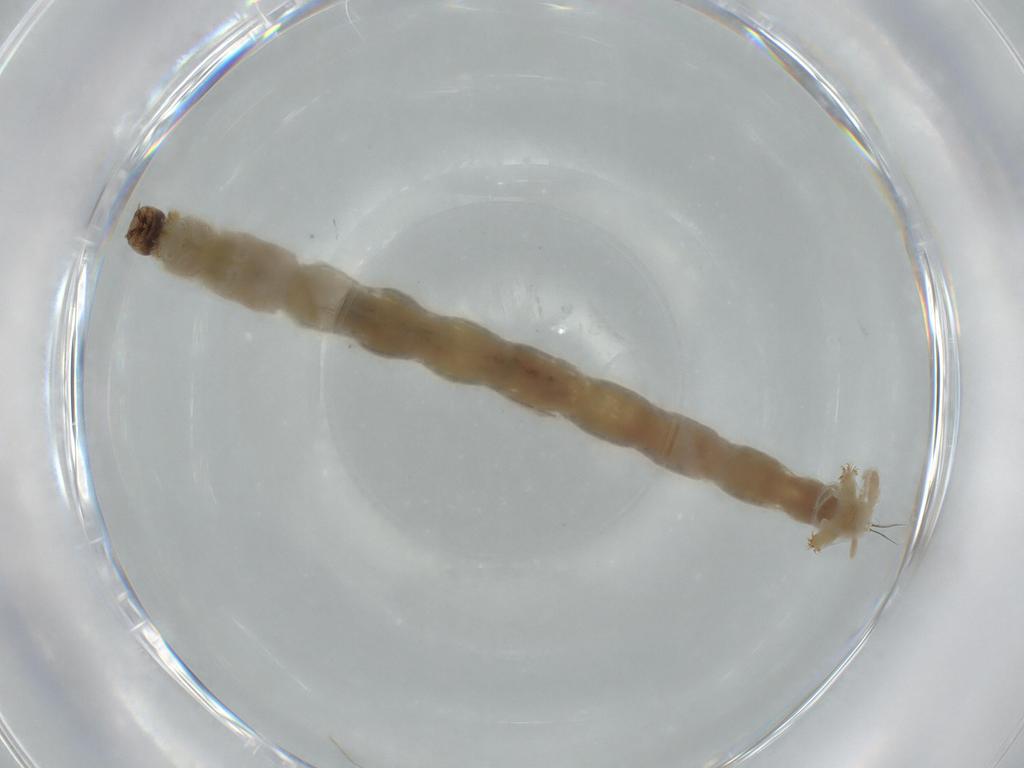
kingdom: Animalia
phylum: Arthropoda
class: Insecta
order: Diptera
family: Chironomidae
